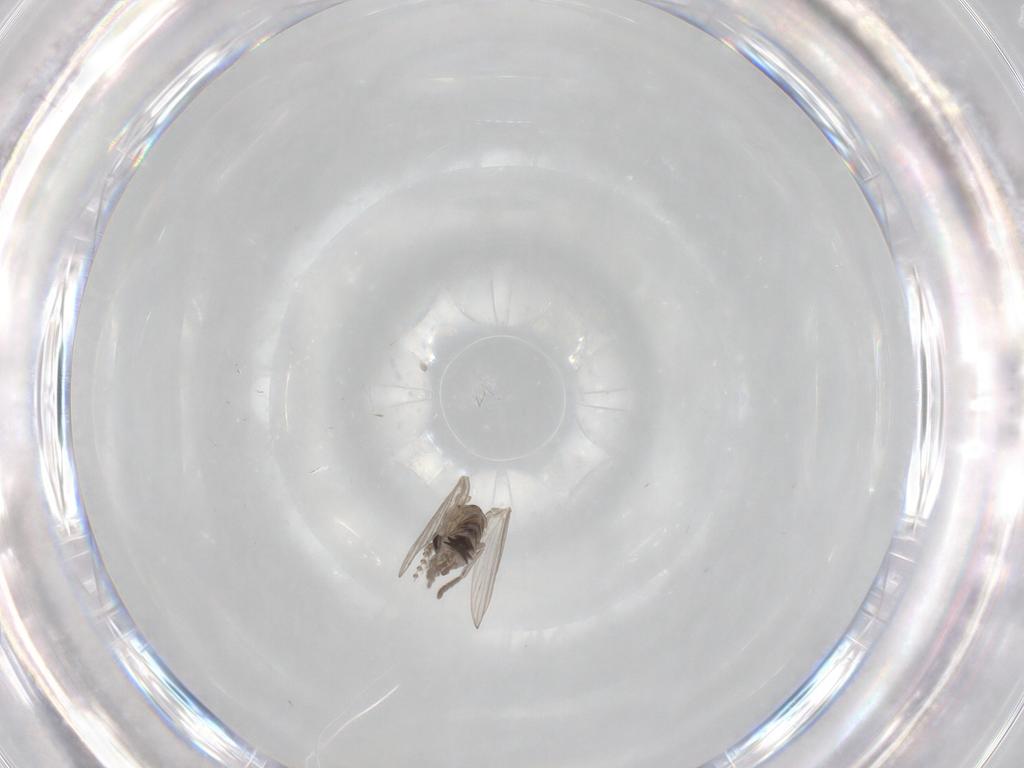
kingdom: Animalia
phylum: Arthropoda
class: Insecta
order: Diptera
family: Psychodidae
